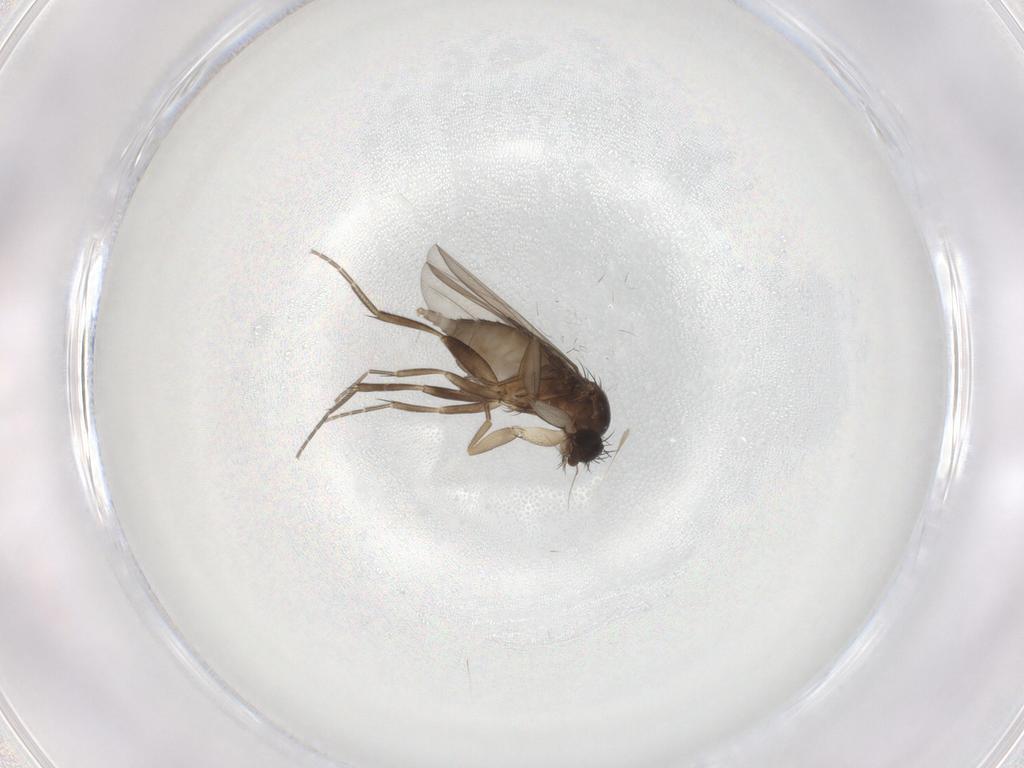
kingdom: Animalia
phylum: Arthropoda
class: Insecta
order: Diptera
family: Phoridae
